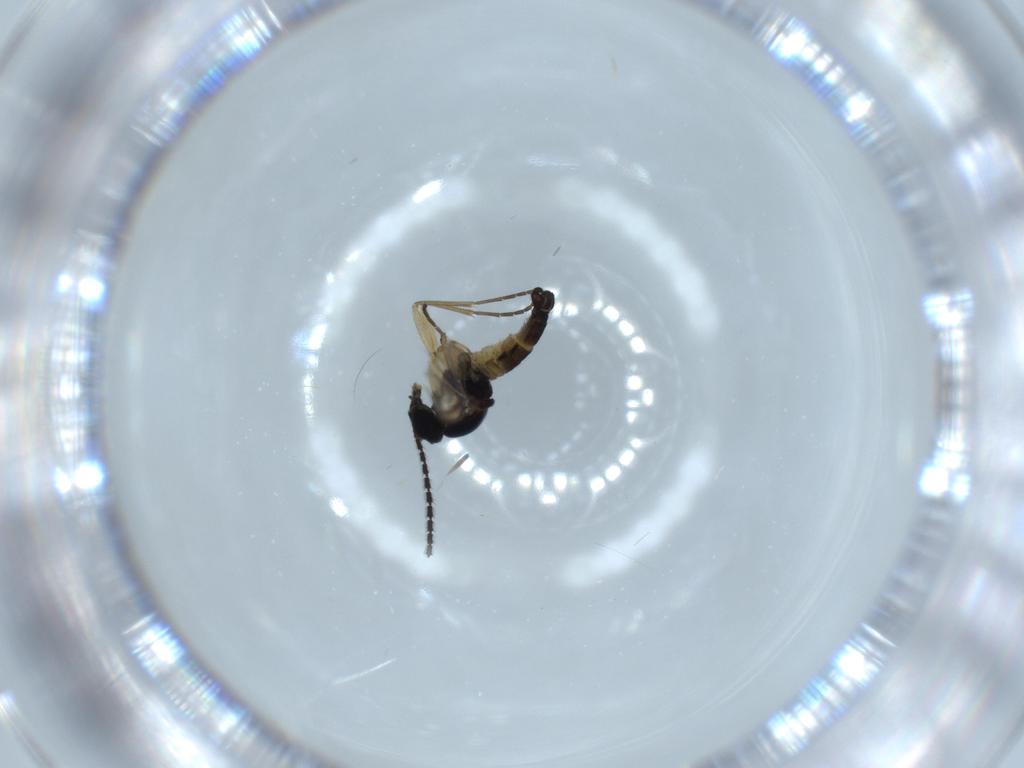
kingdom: Animalia
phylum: Arthropoda
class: Insecta
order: Diptera
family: Sciaridae
